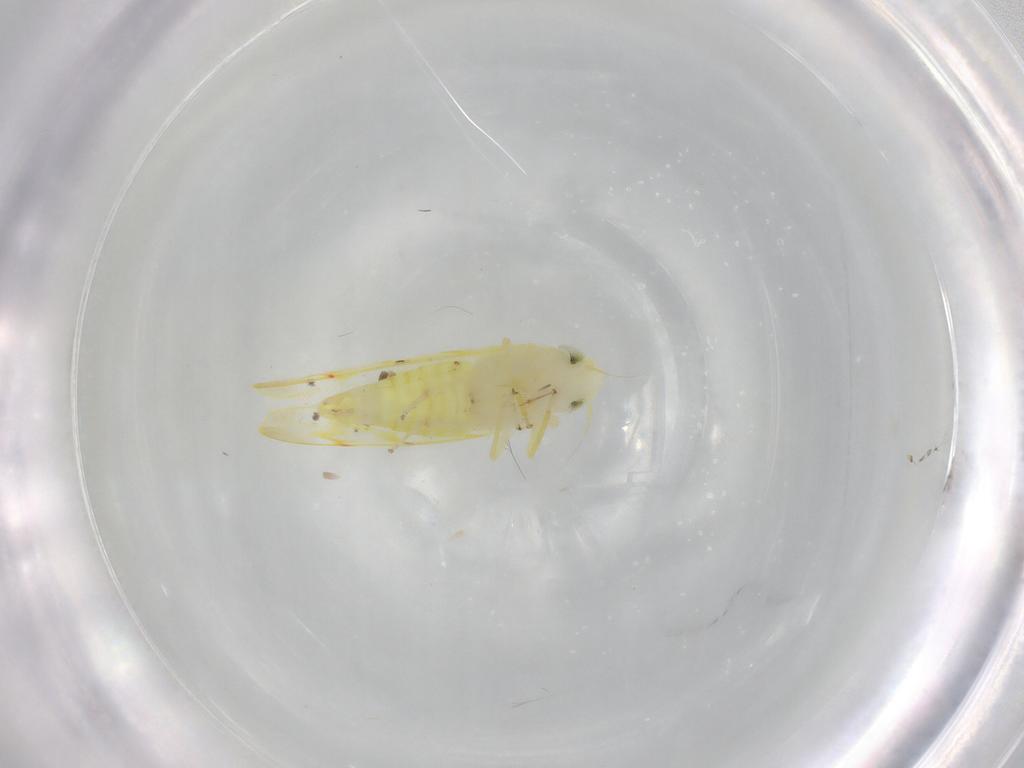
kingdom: Animalia
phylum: Arthropoda
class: Insecta
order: Hemiptera
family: Cicadellidae
